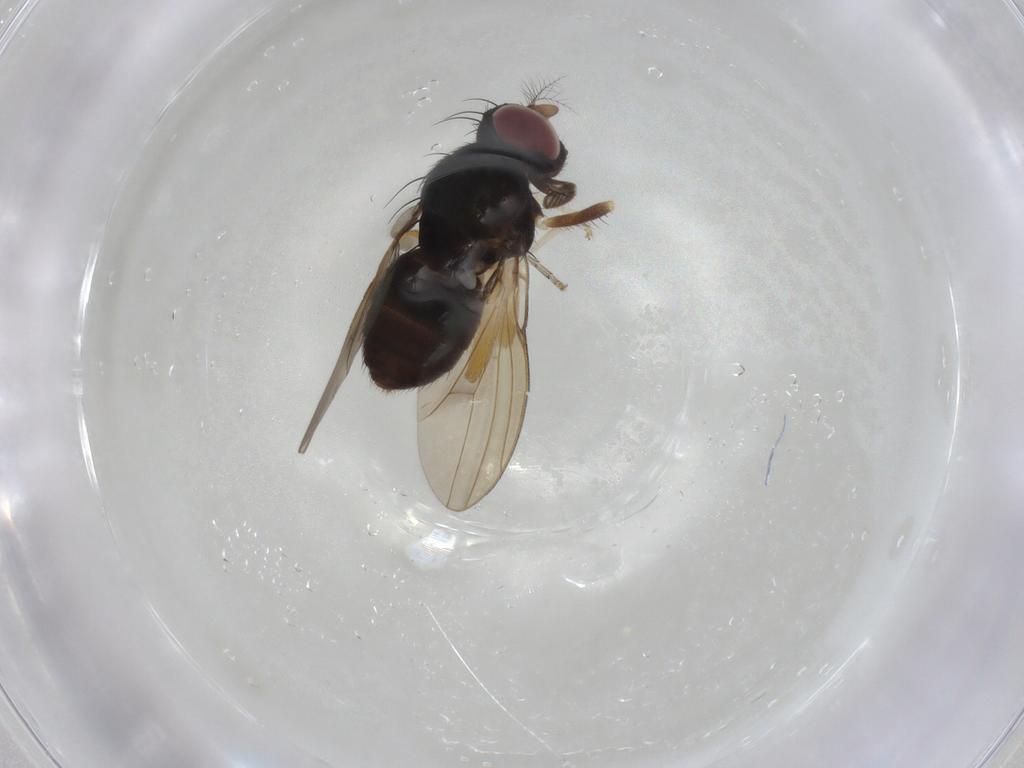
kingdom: Animalia
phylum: Arthropoda
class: Insecta
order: Diptera
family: Lauxaniidae
